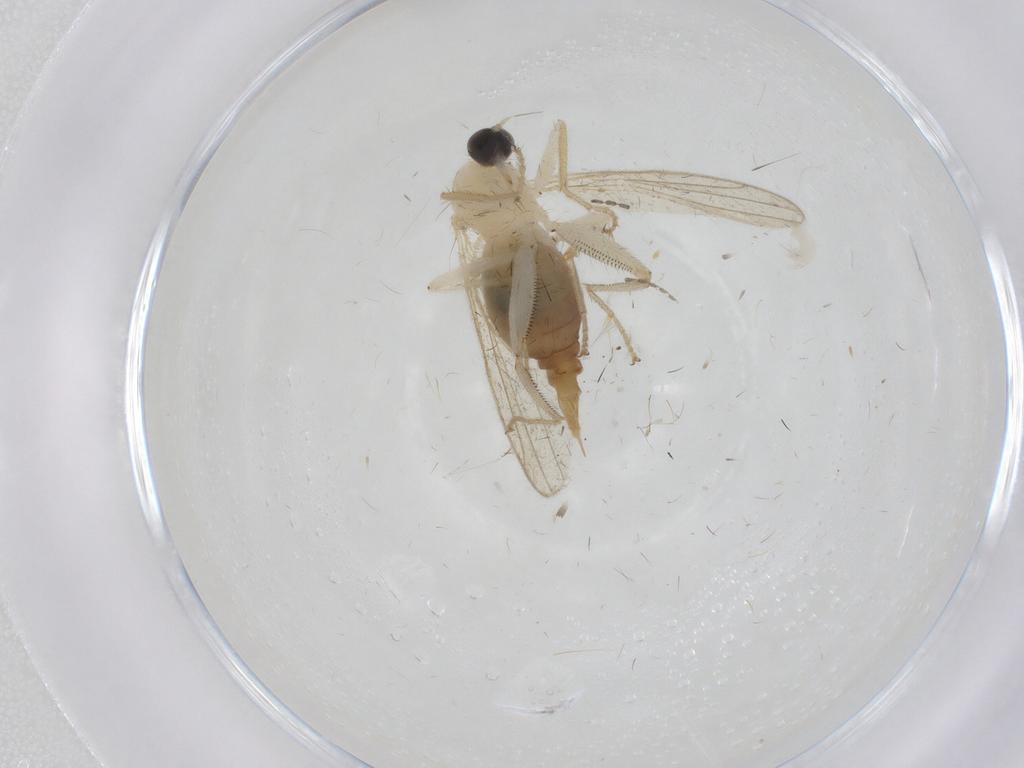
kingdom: Animalia
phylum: Arthropoda
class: Insecta
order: Diptera
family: Hybotidae
